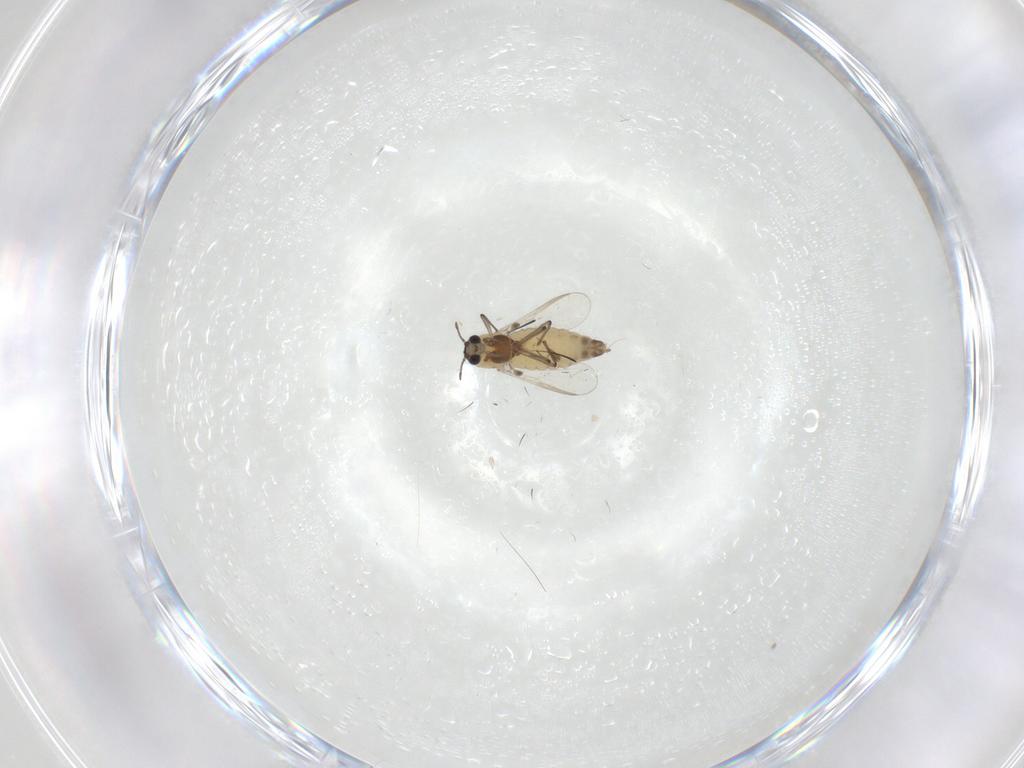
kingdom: Animalia
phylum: Arthropoda
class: Insecta
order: Diptera
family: Chironomidae
